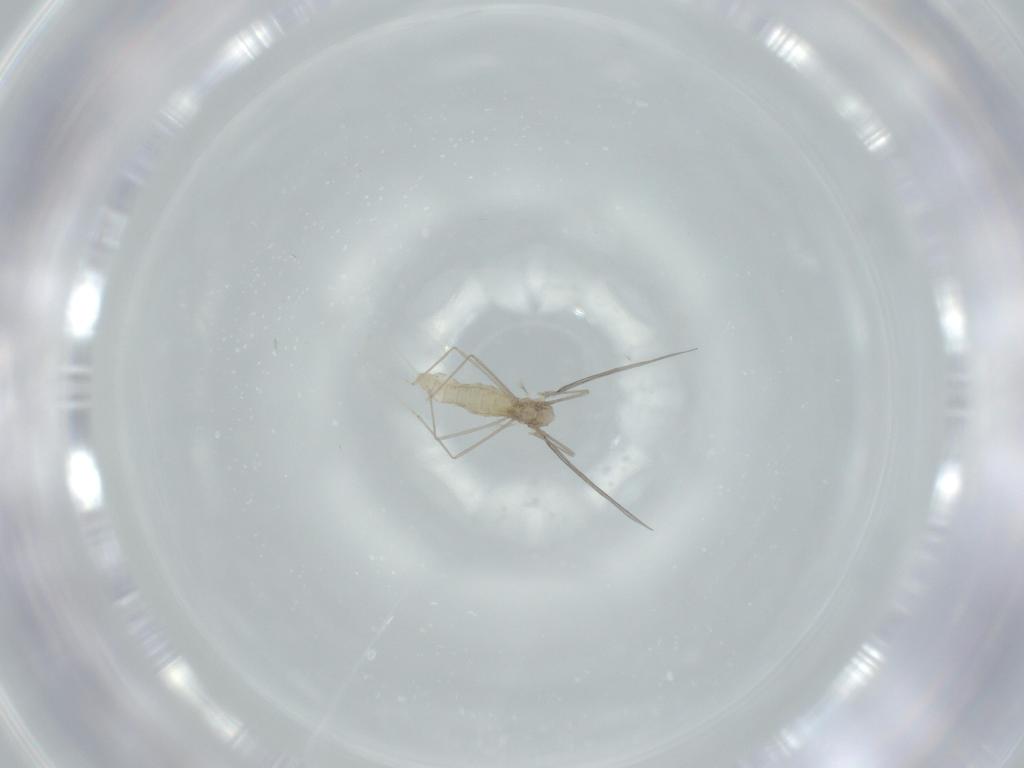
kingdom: Animalia
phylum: Arthropoda
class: Insecta
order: Diptera
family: Cecidomyiidae
